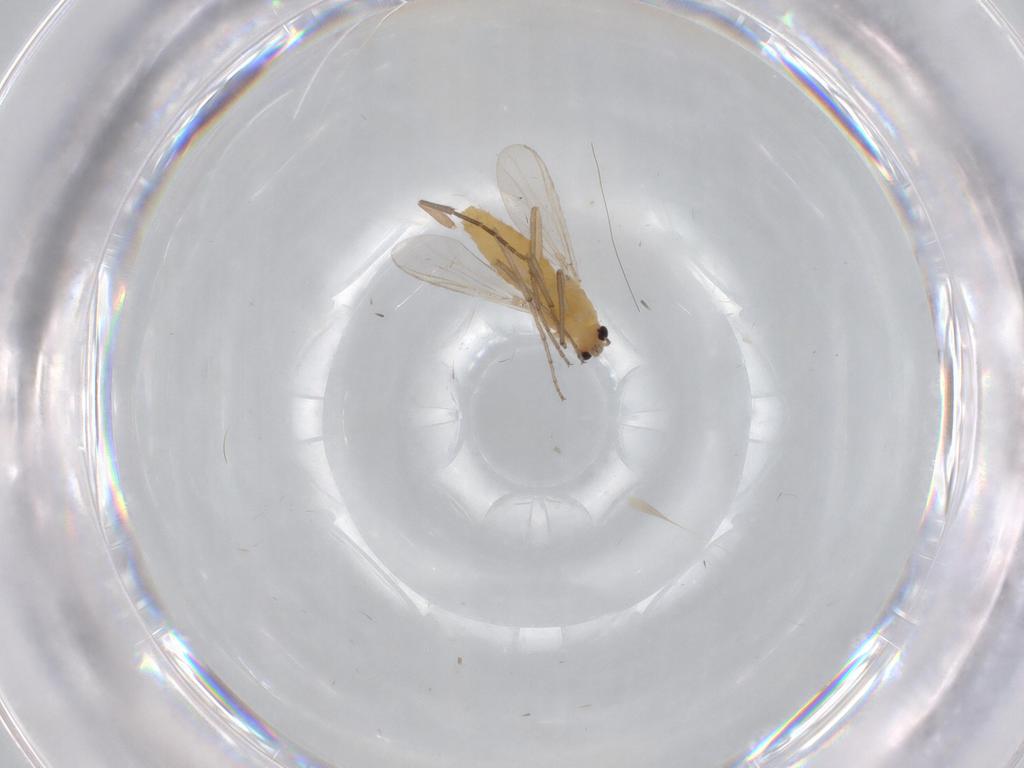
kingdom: Animalia
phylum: Arthropoda
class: Insecta
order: Diptera
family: Chironomidae
